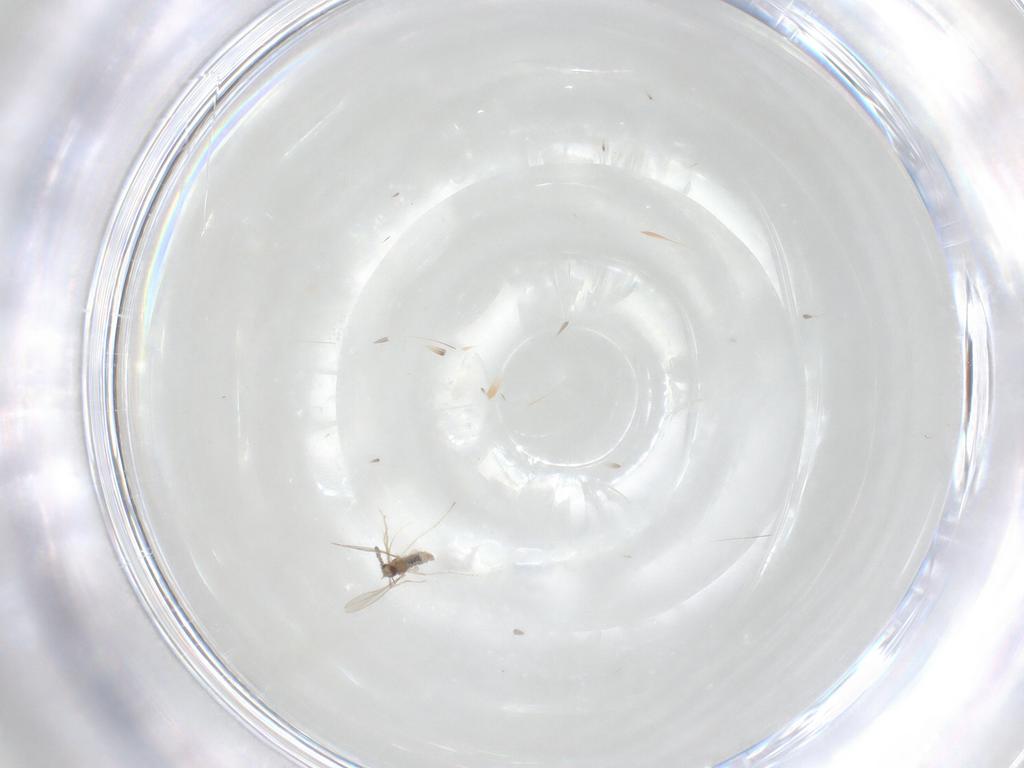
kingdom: Animalia
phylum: Arthropoda
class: Insecta
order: Diptera
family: Cecidomyiidae
